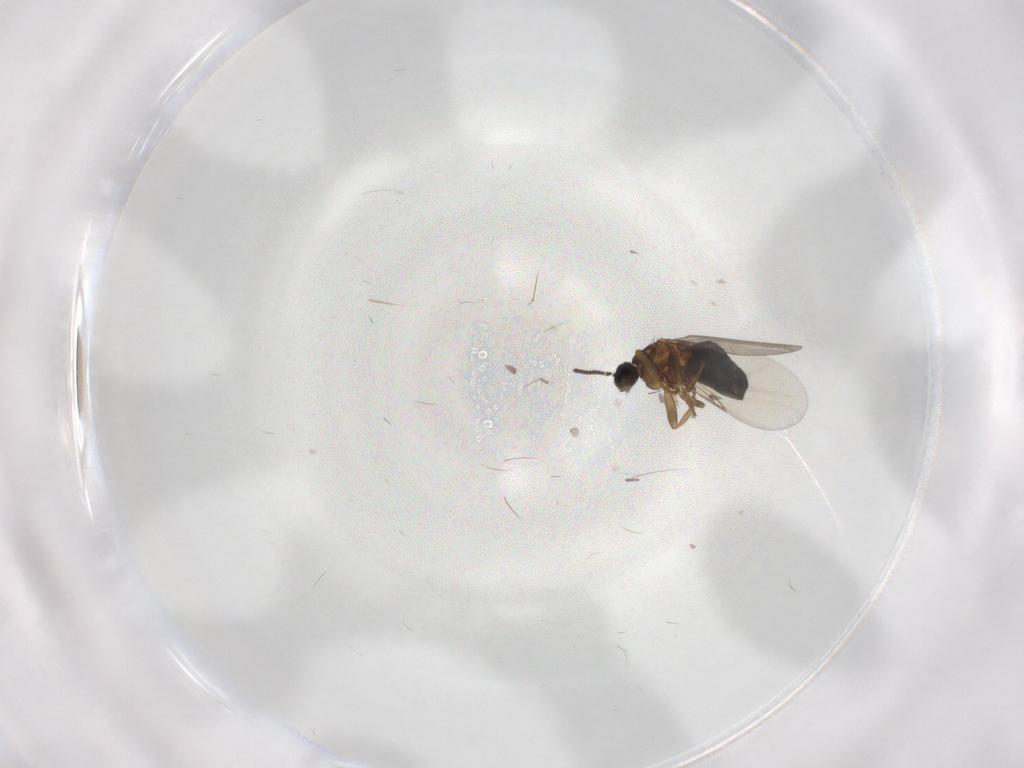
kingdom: Animalia
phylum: Arthropoda
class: Insecta
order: Diptera
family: Scatopsidae
